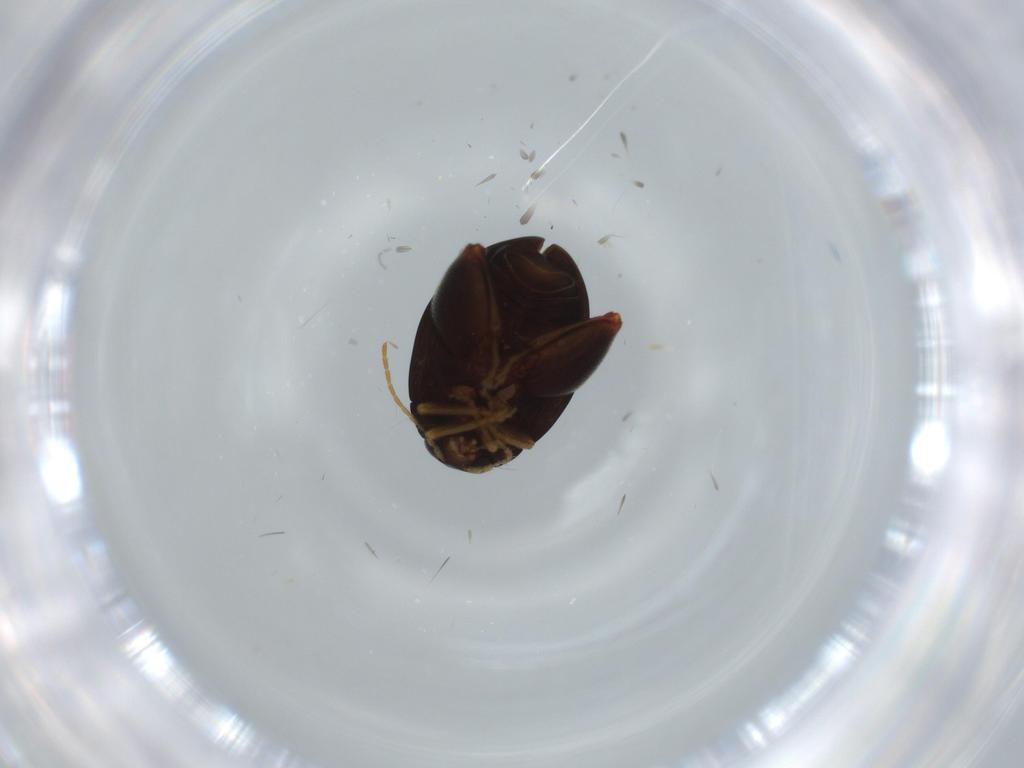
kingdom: Animalia
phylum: Arthropoda
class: Insecta
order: Coleoptera
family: Chrysomelidae
